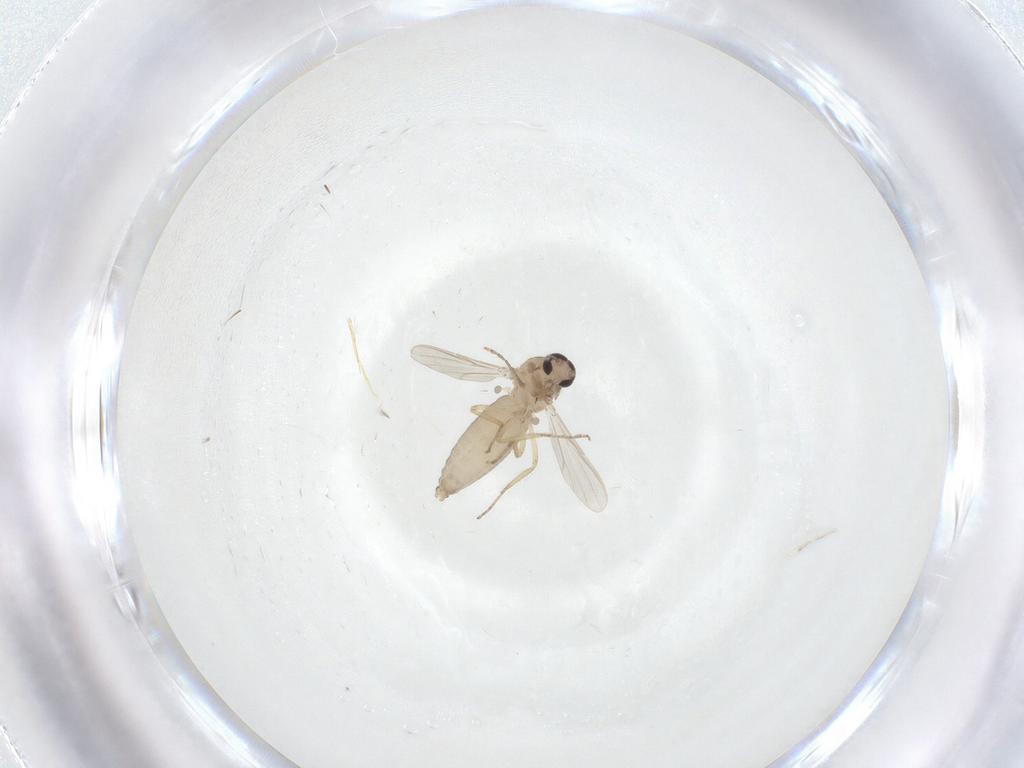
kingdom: Animalia
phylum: Arthropoda
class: Insecta
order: Diptera
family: Ceratopogonidae
